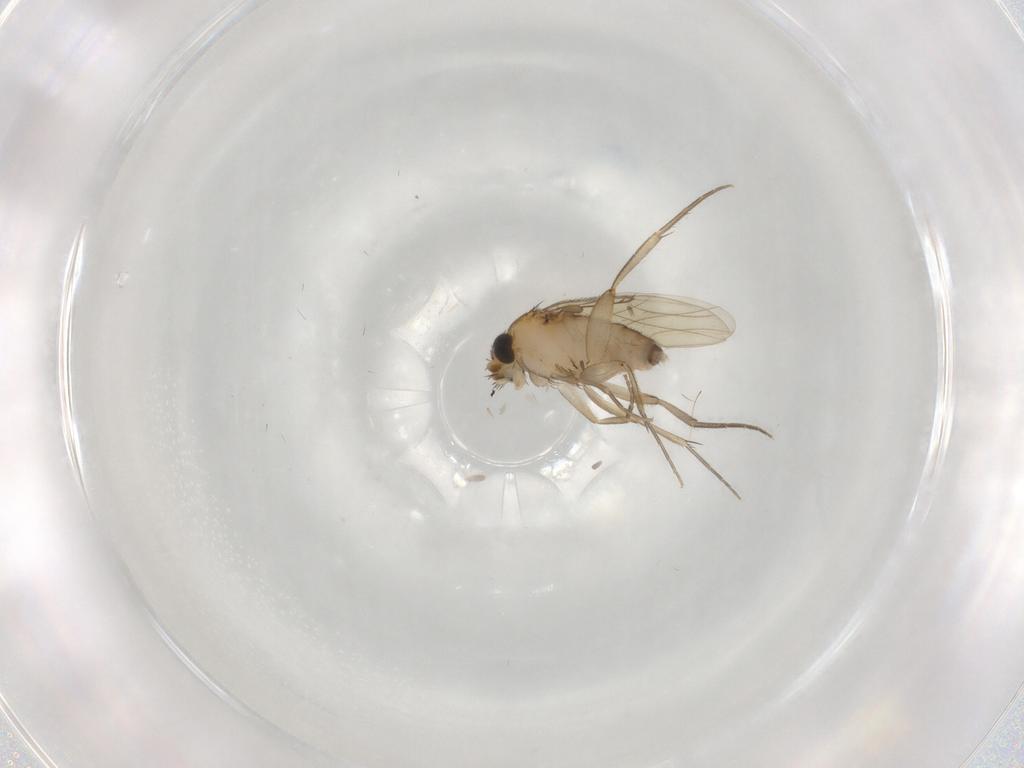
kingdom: Animalia
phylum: Arthropoda
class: Insecta
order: Diptera
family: Phoridae
